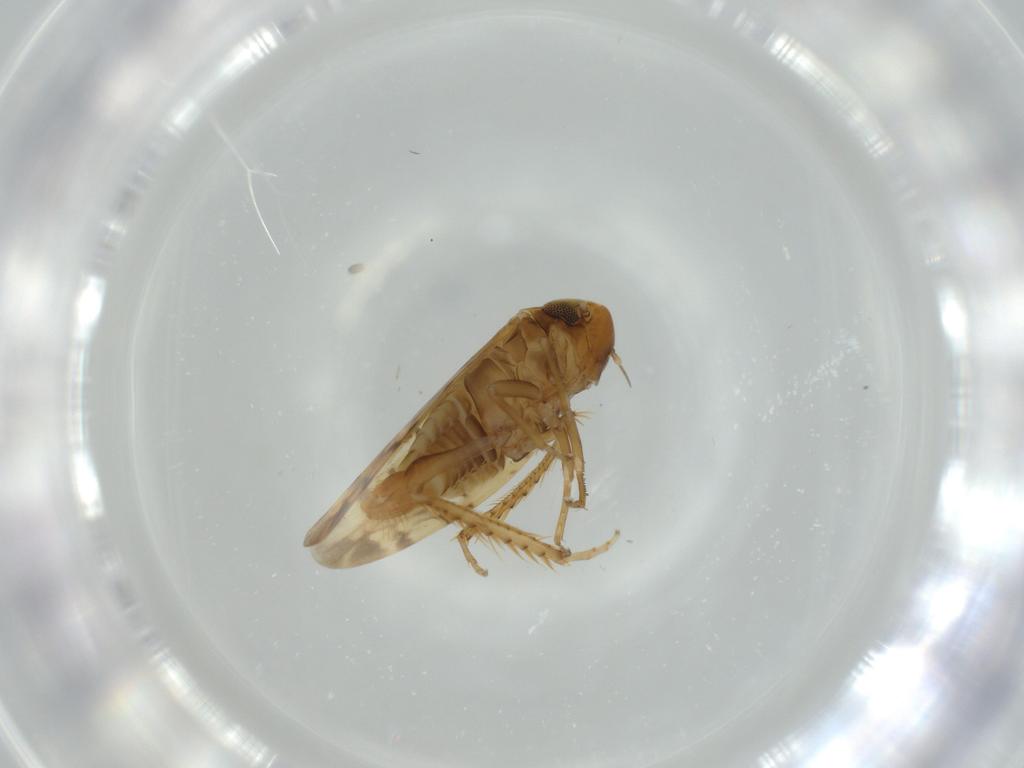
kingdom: Animalia
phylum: Arthropoda
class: Insecta
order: Hemiptera
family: Cicadellidae
